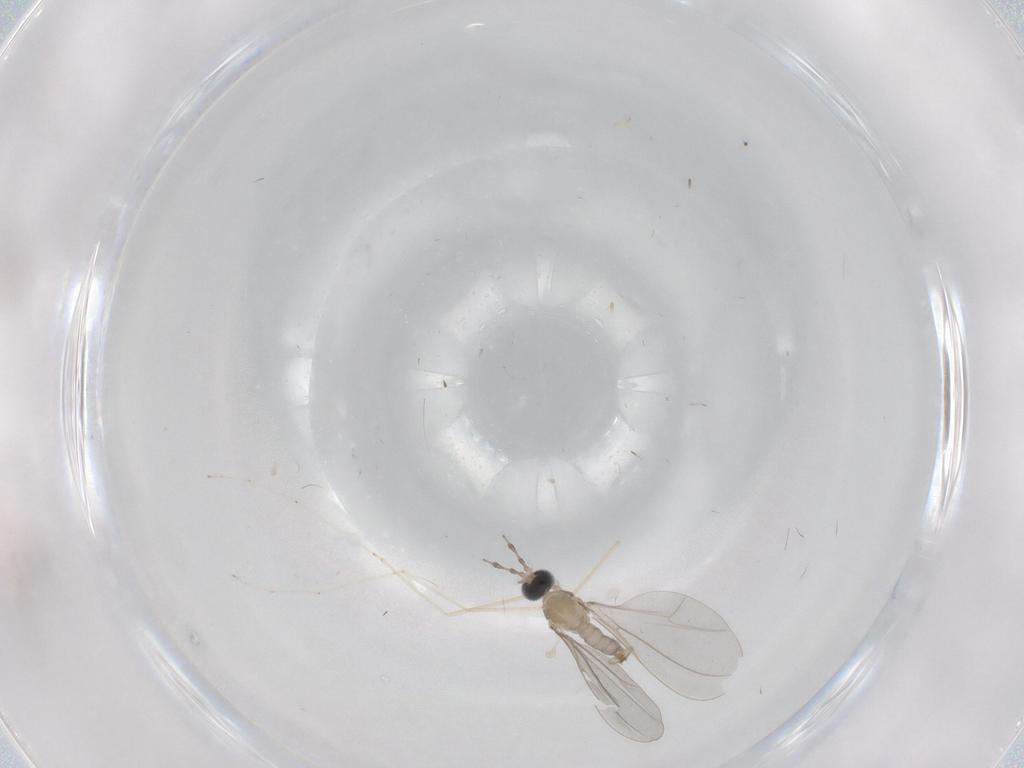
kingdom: Animalia
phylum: Arthropoda
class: Insecta
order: Diptera
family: Cecidomyiidae
